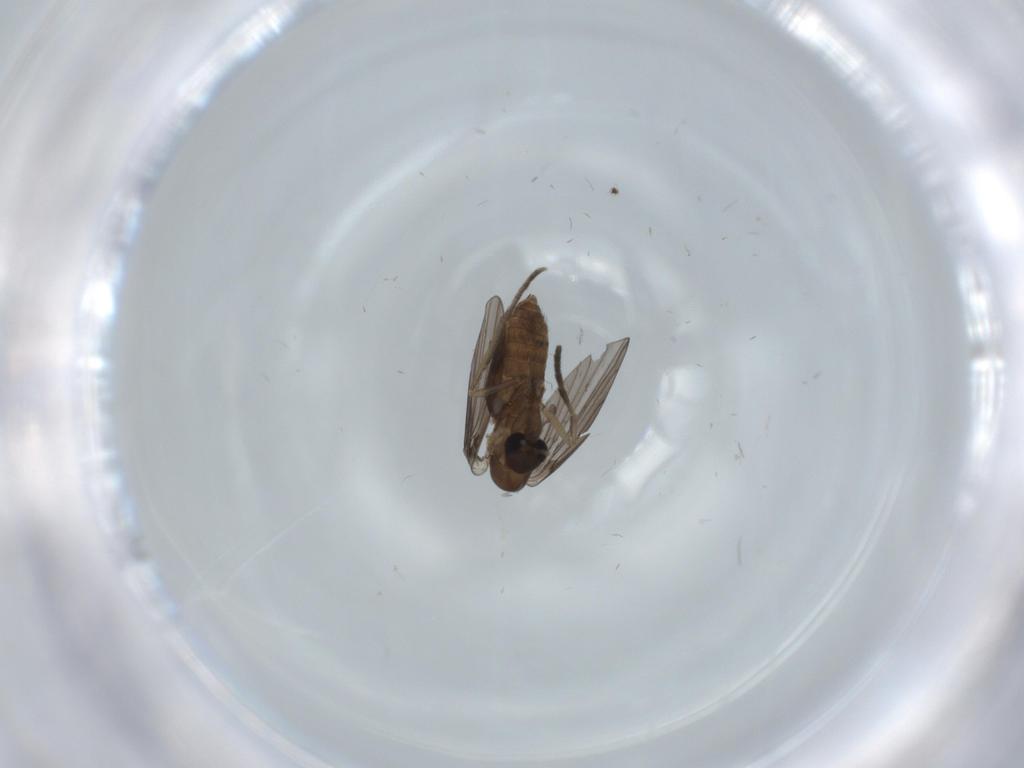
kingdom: Animalia
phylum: Arthropoda
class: Insecta
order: Diptera
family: Psychodidae
